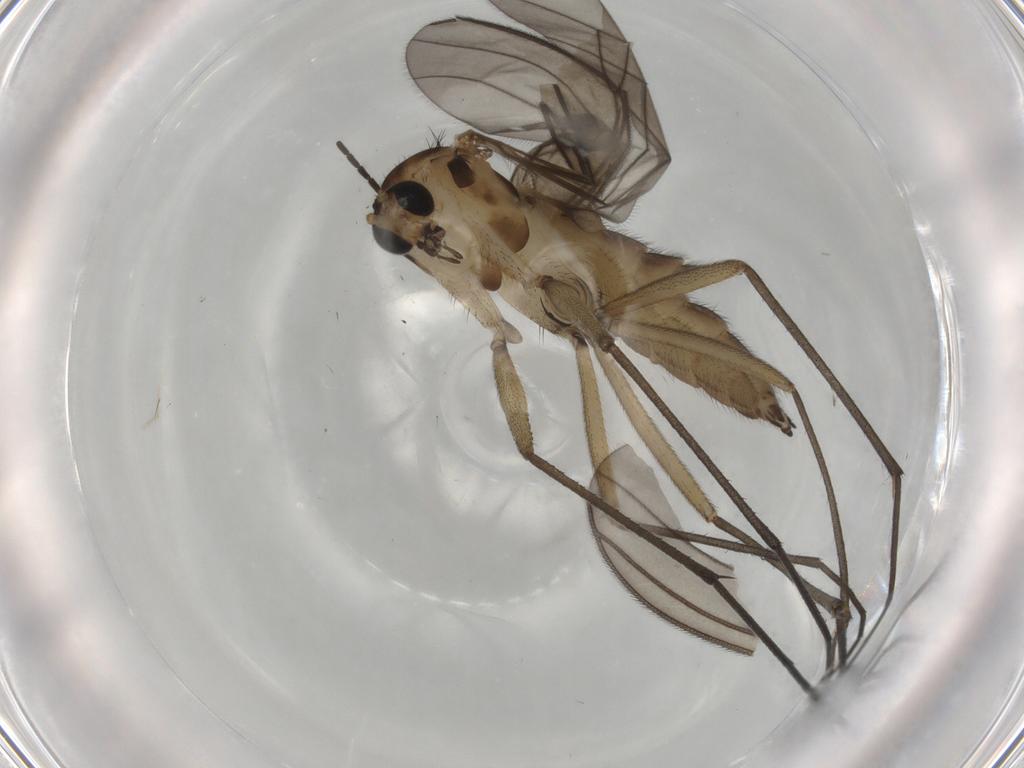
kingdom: Animalia
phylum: Arthropoda
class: Insecta
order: Diptera
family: Sciaridae
